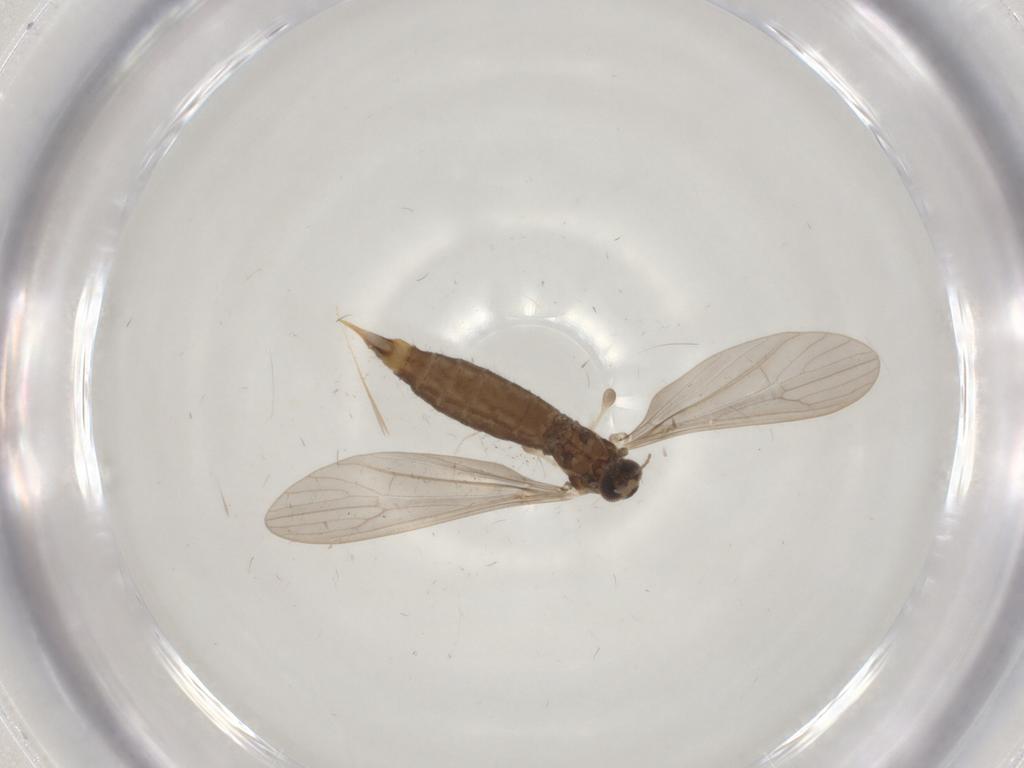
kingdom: Animalia
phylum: Arthropoda
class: Insecta
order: Diptera
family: Limoniidae
